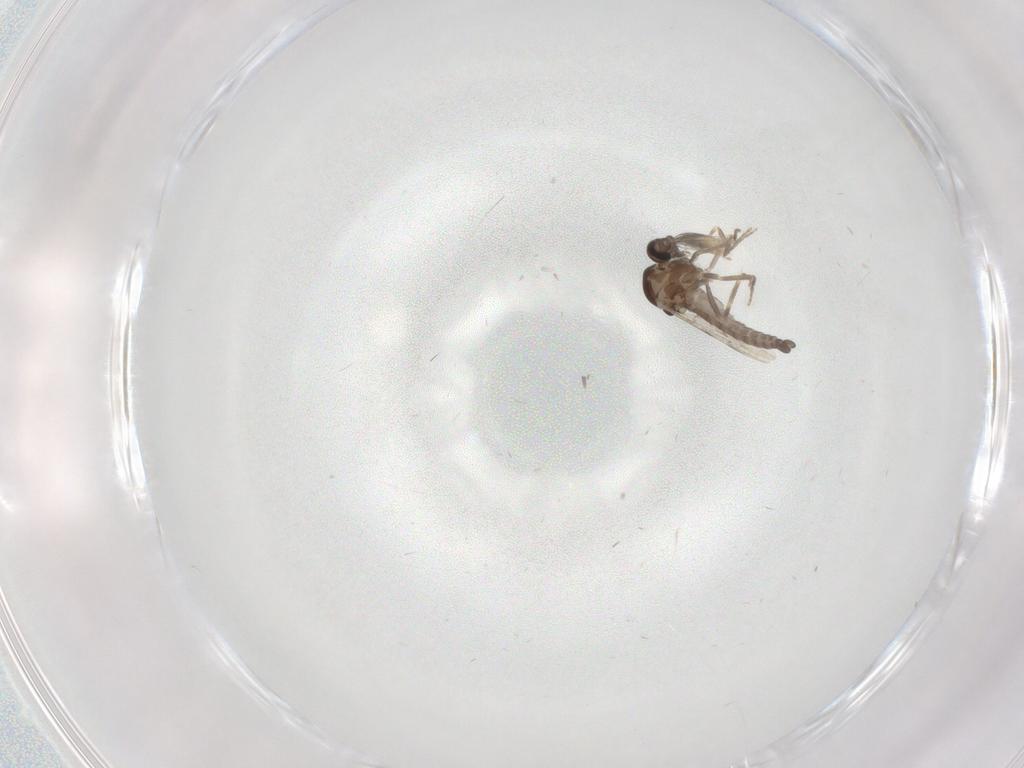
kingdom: Animalia
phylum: Arthropoda
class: Insecta
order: Diptera
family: Ceratopogonidae
